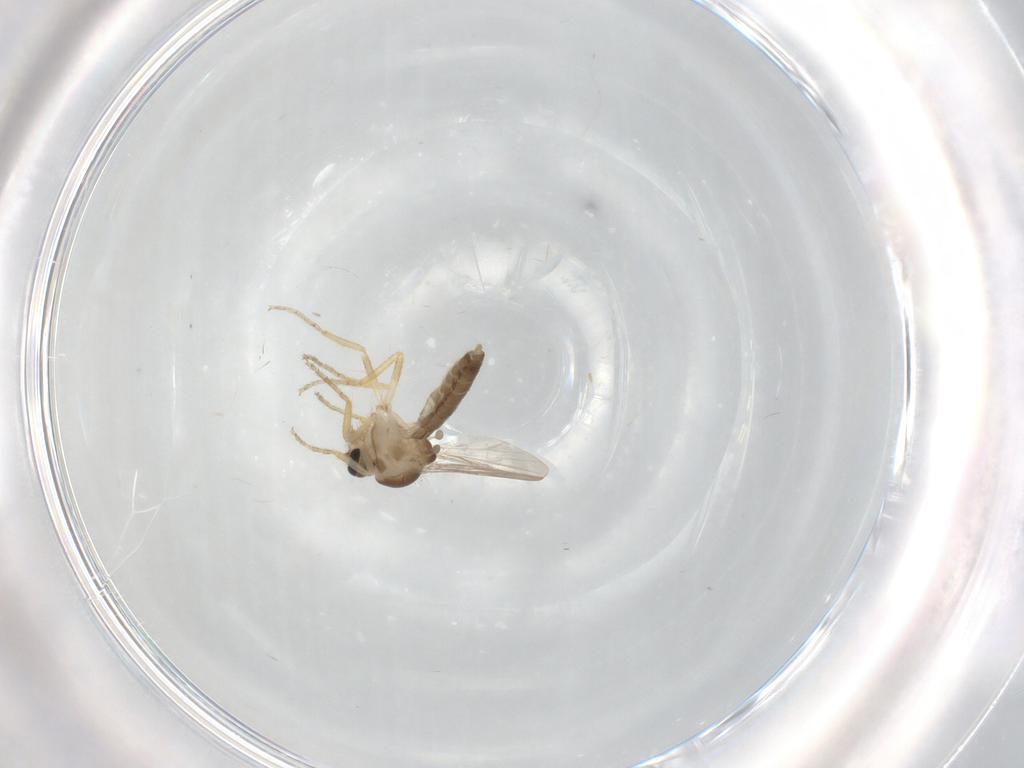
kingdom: Animalia
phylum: Arthropoda
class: Insecta
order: Diptera
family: Ceratopogonidae
